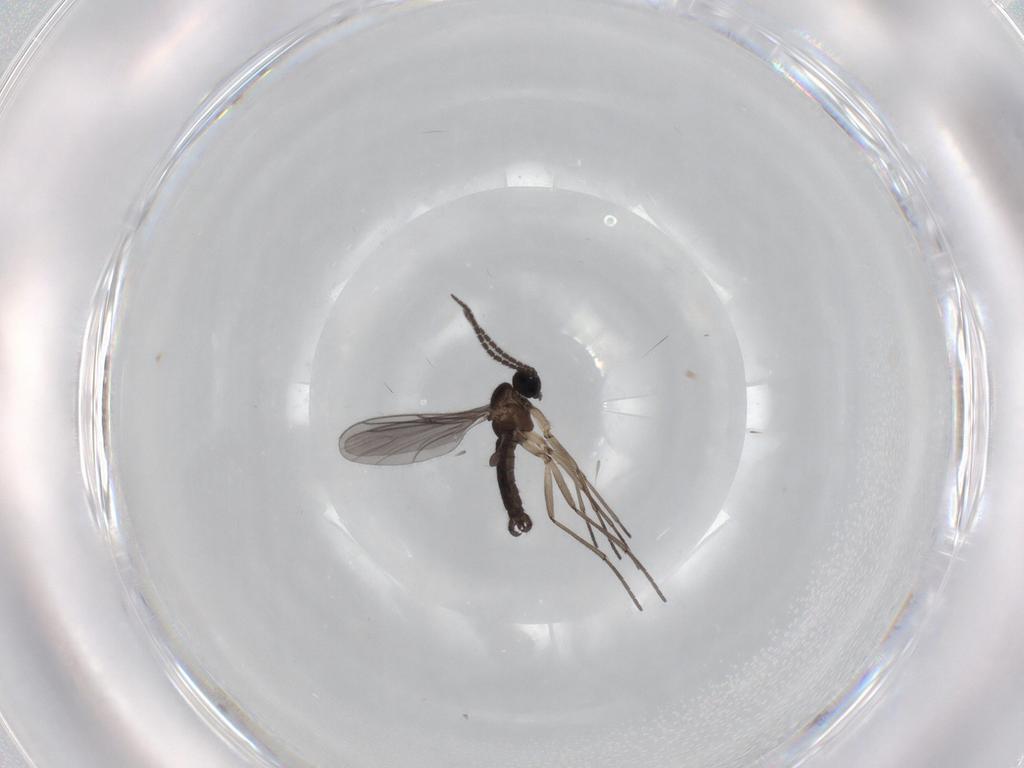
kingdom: Animalia
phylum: Arthropoda
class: Insecta
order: Diptera
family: Sciaridae
